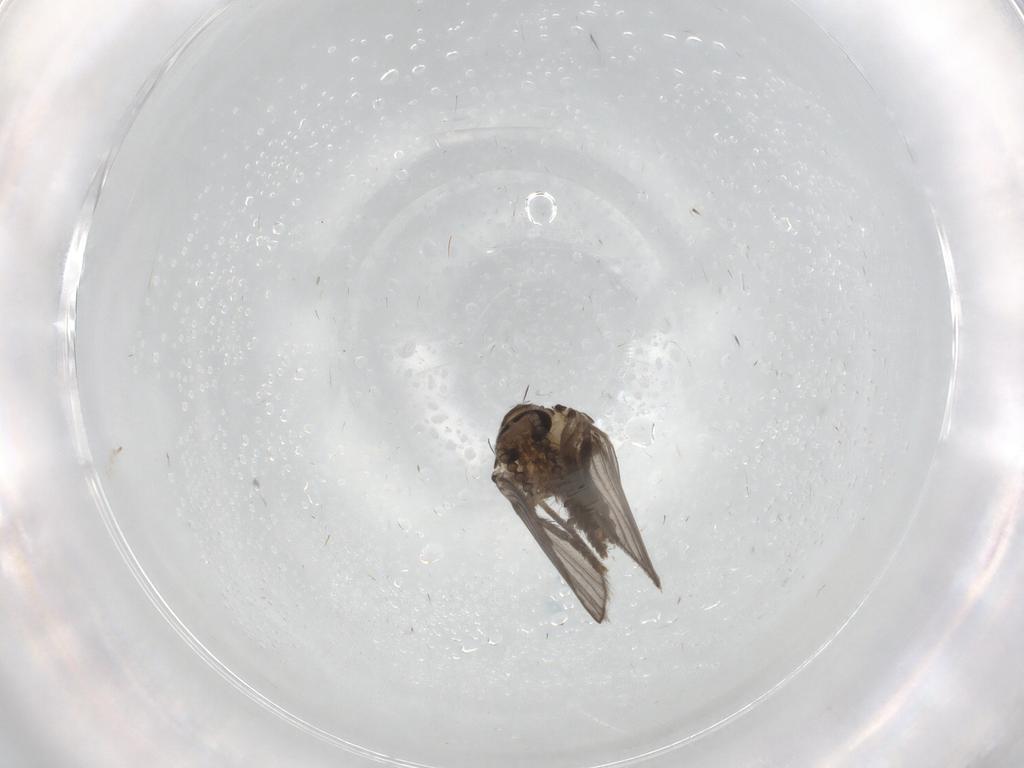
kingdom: Animalia
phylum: Arthropoda
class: Insecta
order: Diptera
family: Psychodidae
